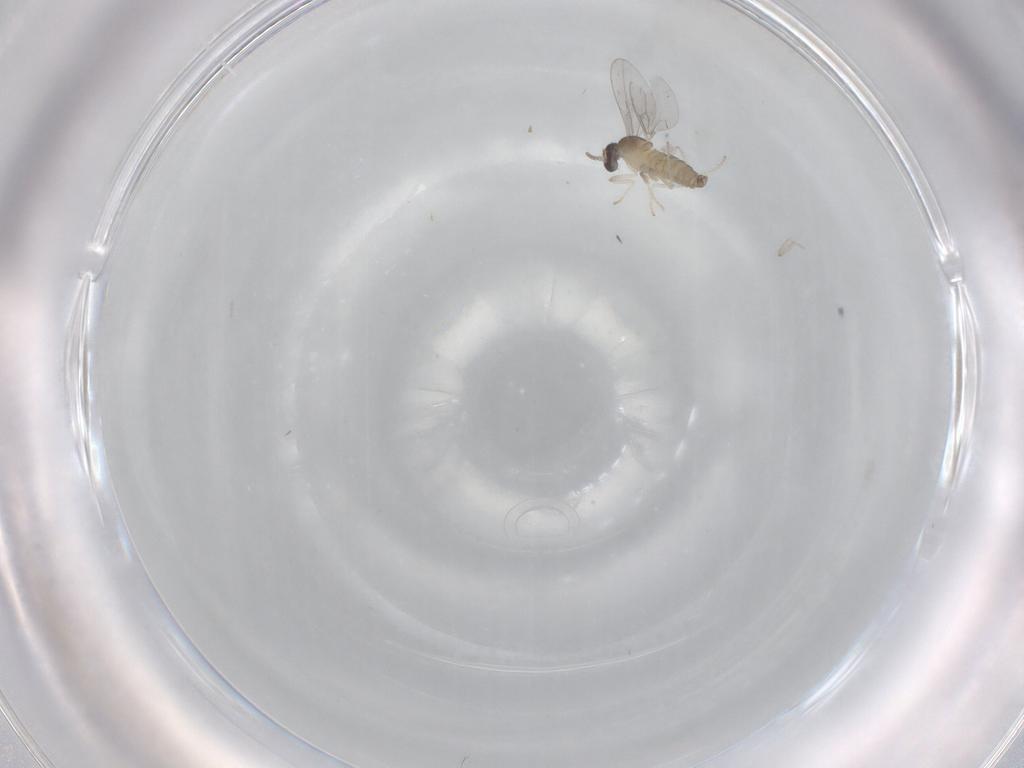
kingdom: Animalia
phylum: Arthropoda
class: Insecta
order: Diptera
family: Cecidomyiidae
